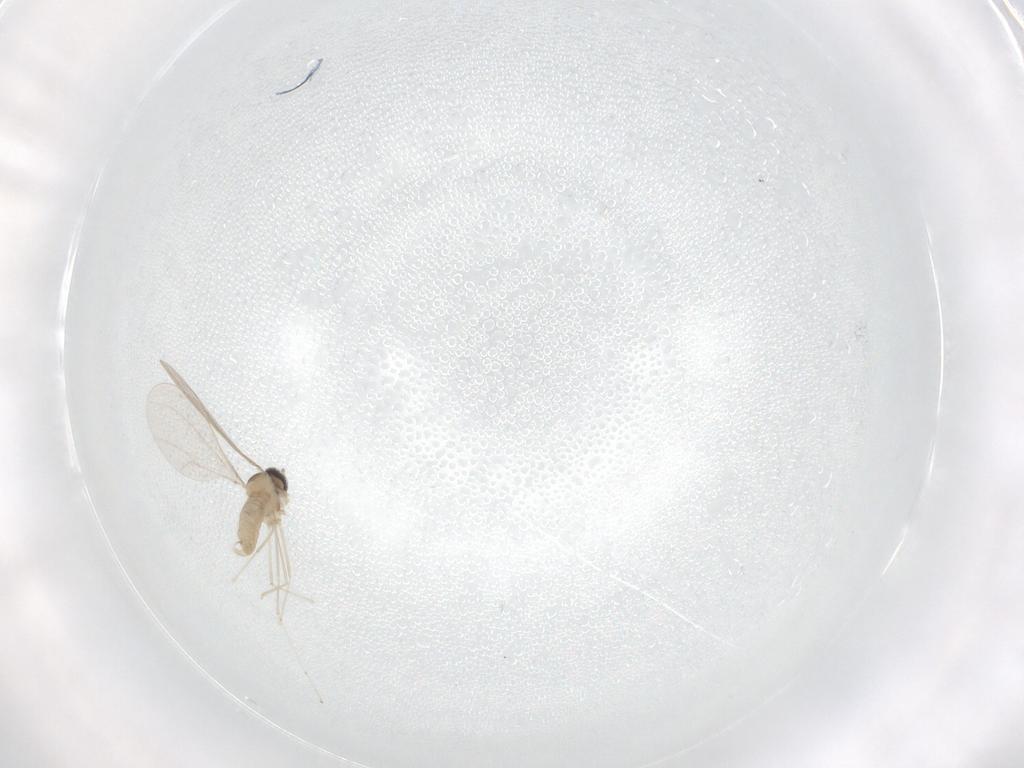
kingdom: Animalia
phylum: Arthropoda
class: Insecta
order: Diptera
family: Cecidomyiidae
